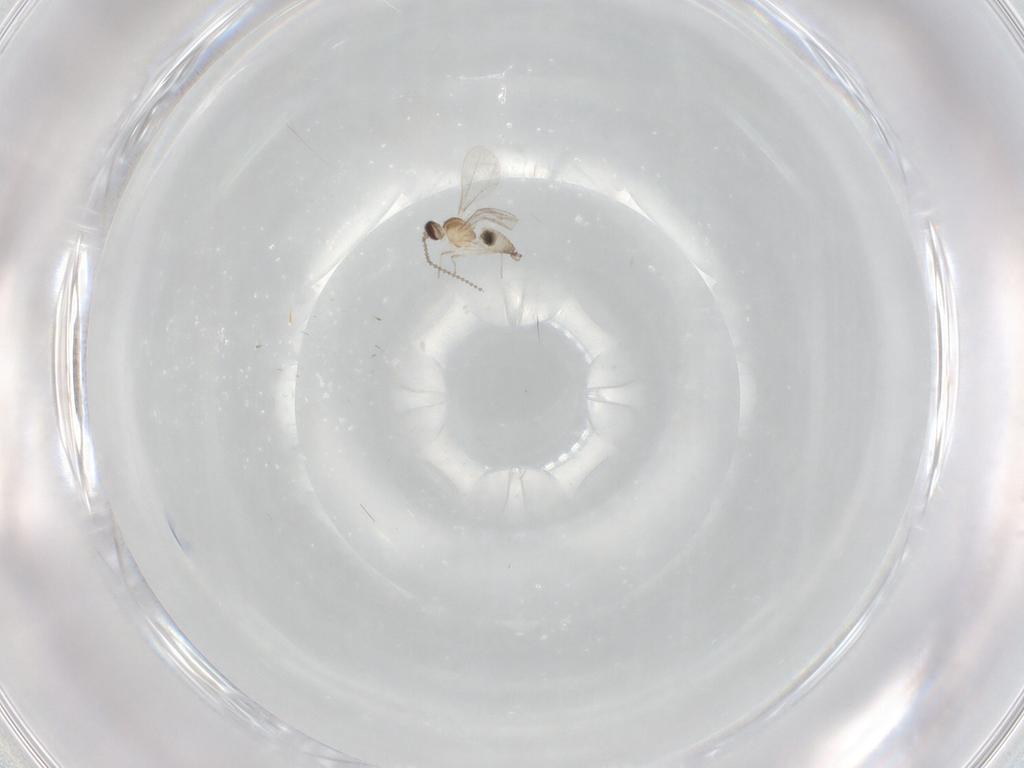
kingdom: Animalia
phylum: Arthropoda
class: Insecta
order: Diptera
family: Cecidomyiidae
